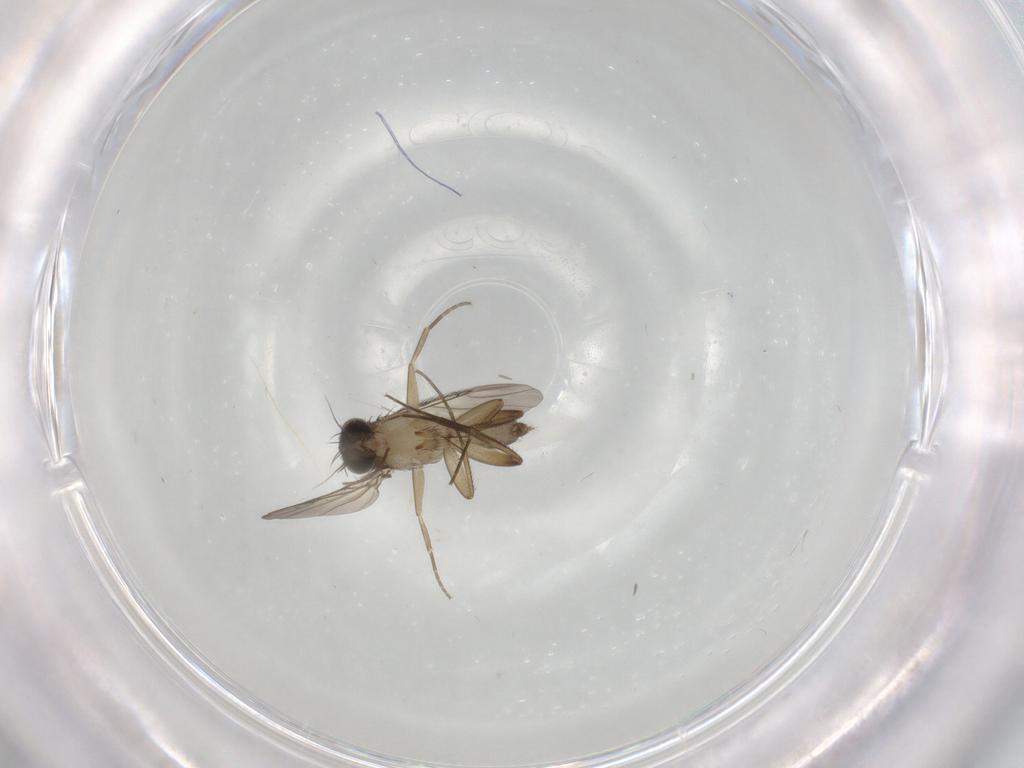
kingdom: Animalia
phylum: Arthropoda
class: Insecta
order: Diptera
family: Phoridae
